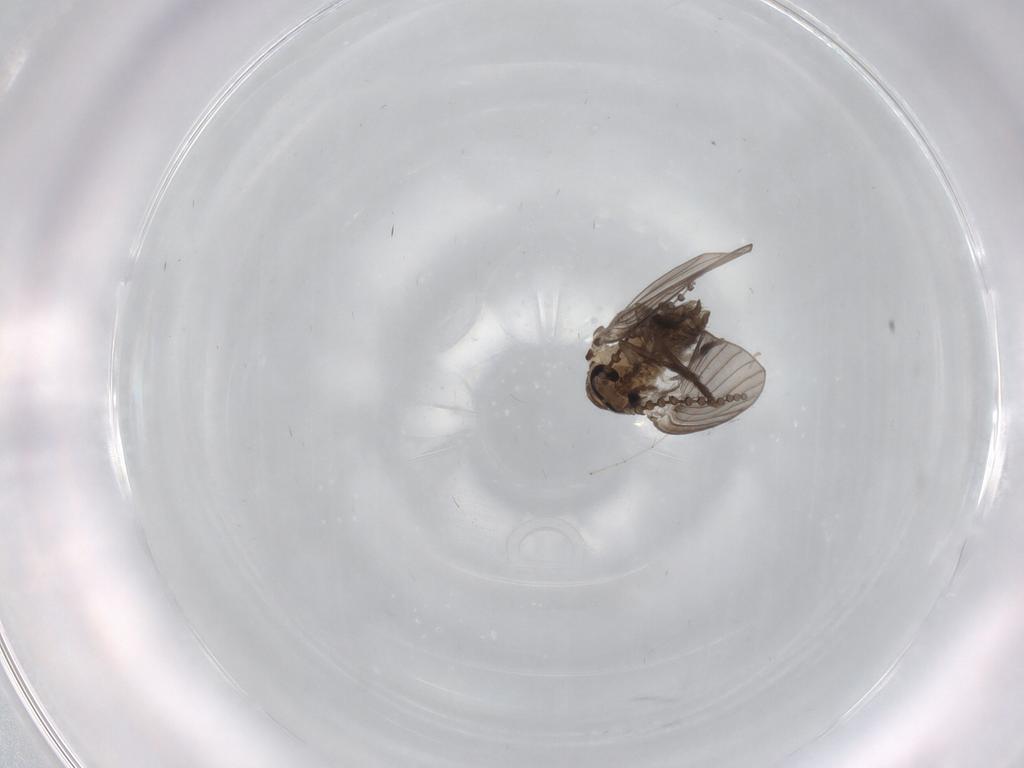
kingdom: Animalia
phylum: Arthropoda
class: Insecta
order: Diptera
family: Psychodidae
